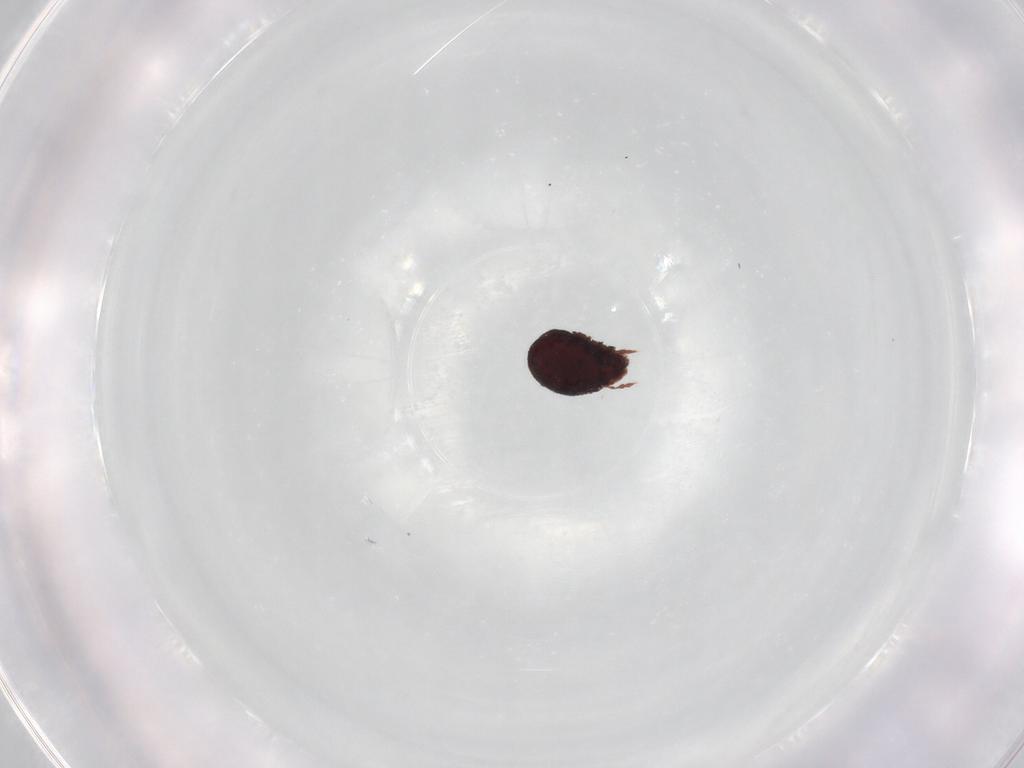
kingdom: Animalia
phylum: Arthropoda
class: Arachnida
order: Sarcoptiformes
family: Cepheusidae
